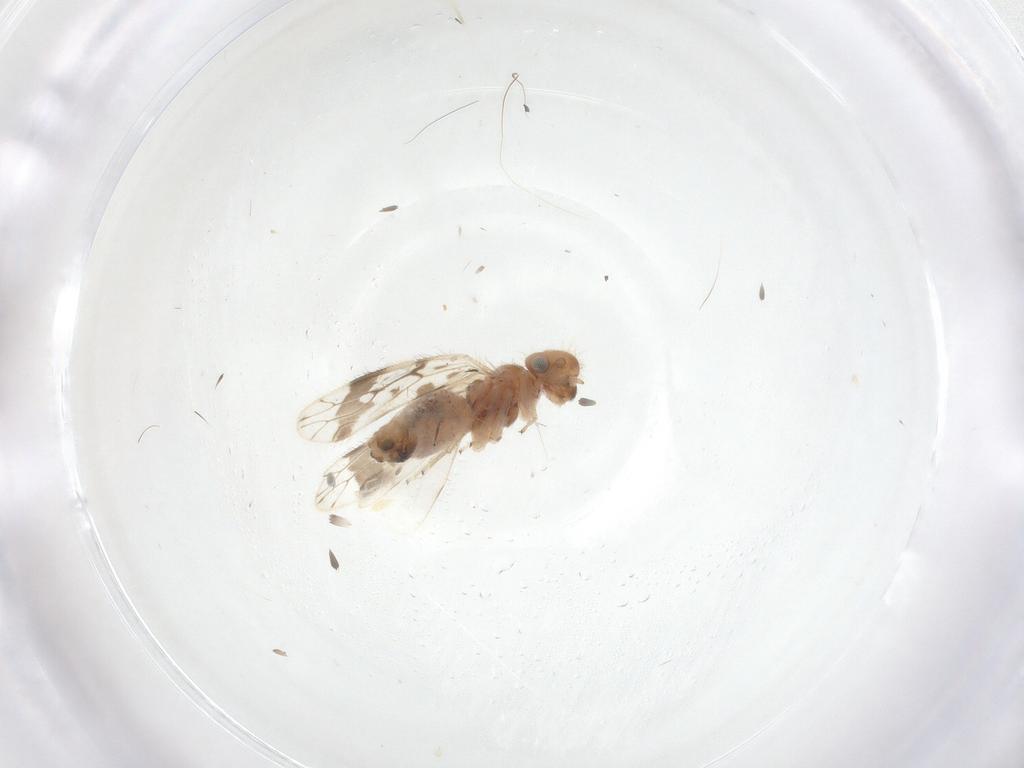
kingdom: Animalia
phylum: Arthropoda
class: Insecta
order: Psocodea
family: Pseudocaeciliidae
